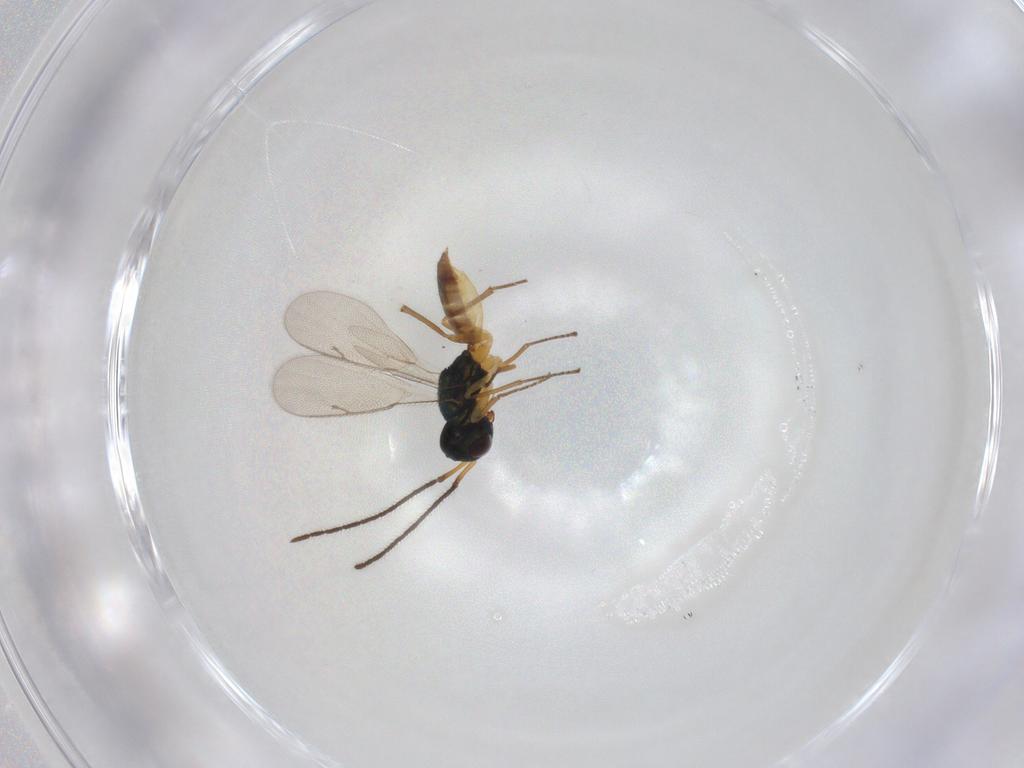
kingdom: Animalia
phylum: Arthropoda
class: Insecta
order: Hymenoptera
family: Pteromalidae
